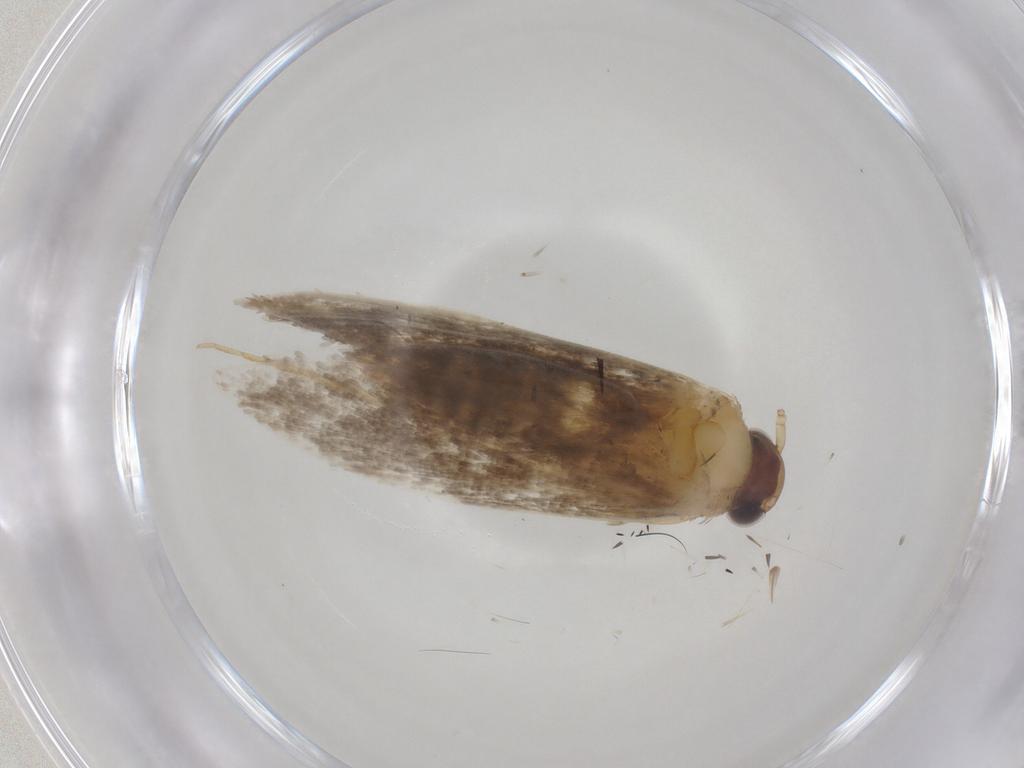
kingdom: Animalia
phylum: Arthropoda
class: Insecta
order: Lepidoptera
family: Tineidae
